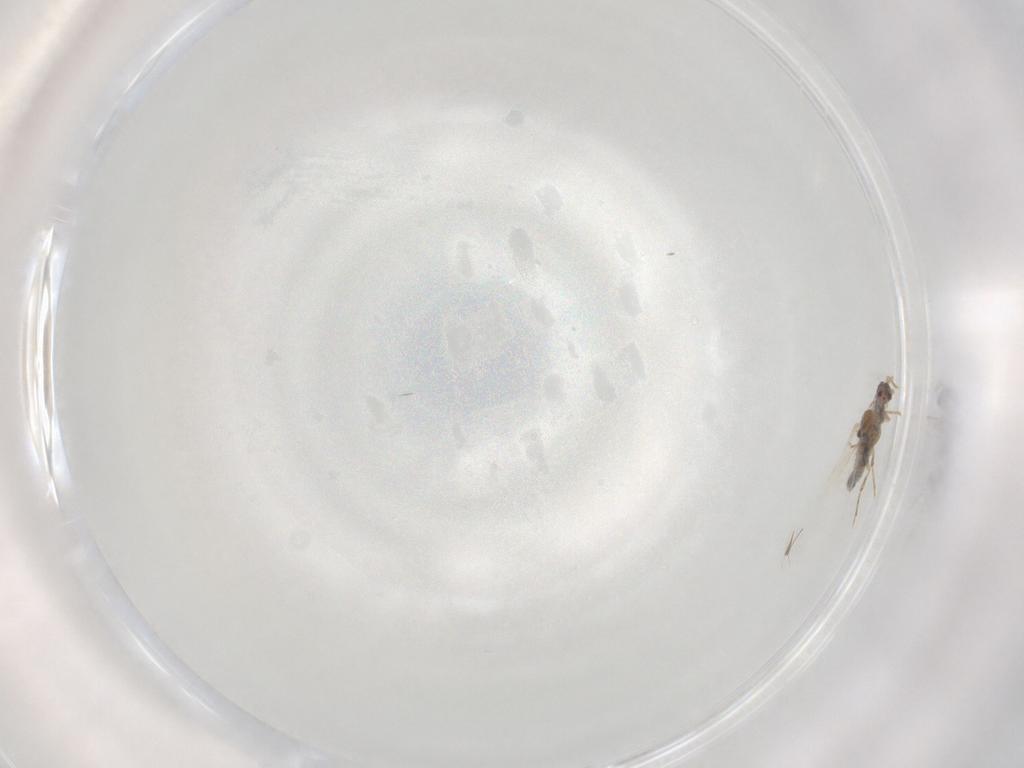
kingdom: Animalia
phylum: Arthropoda
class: Insecta
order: Hemiptera
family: Pseudococcidae
